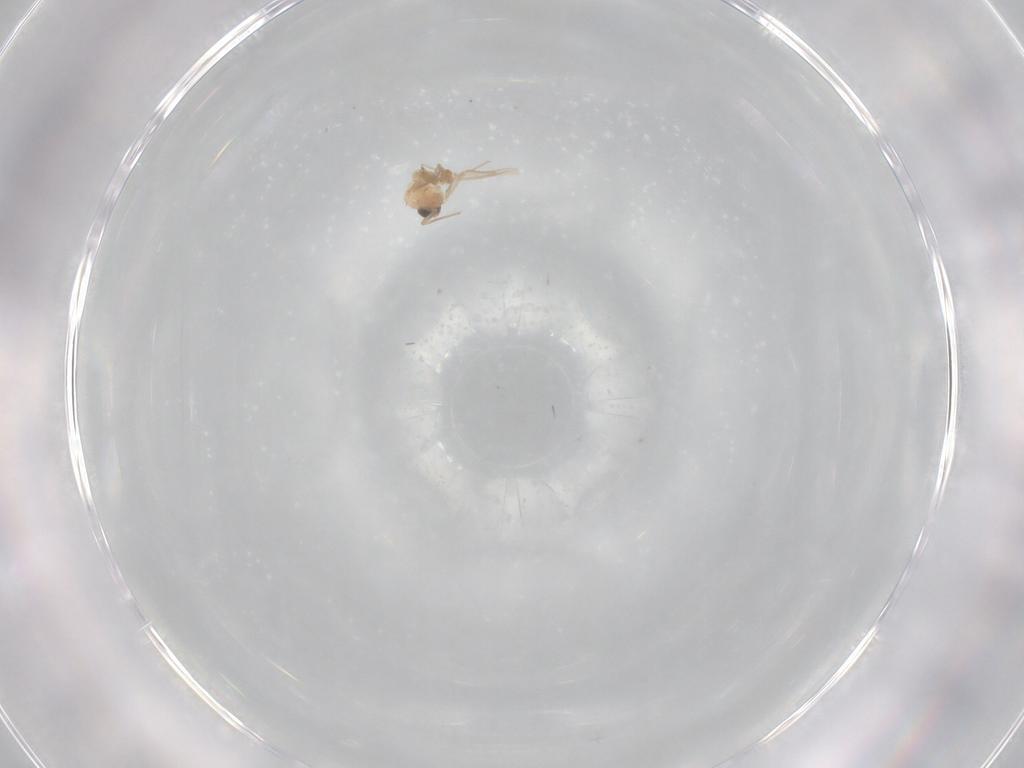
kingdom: Animalia
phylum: Arthropoda
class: Insecta
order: Diptera
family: Chironomidae
